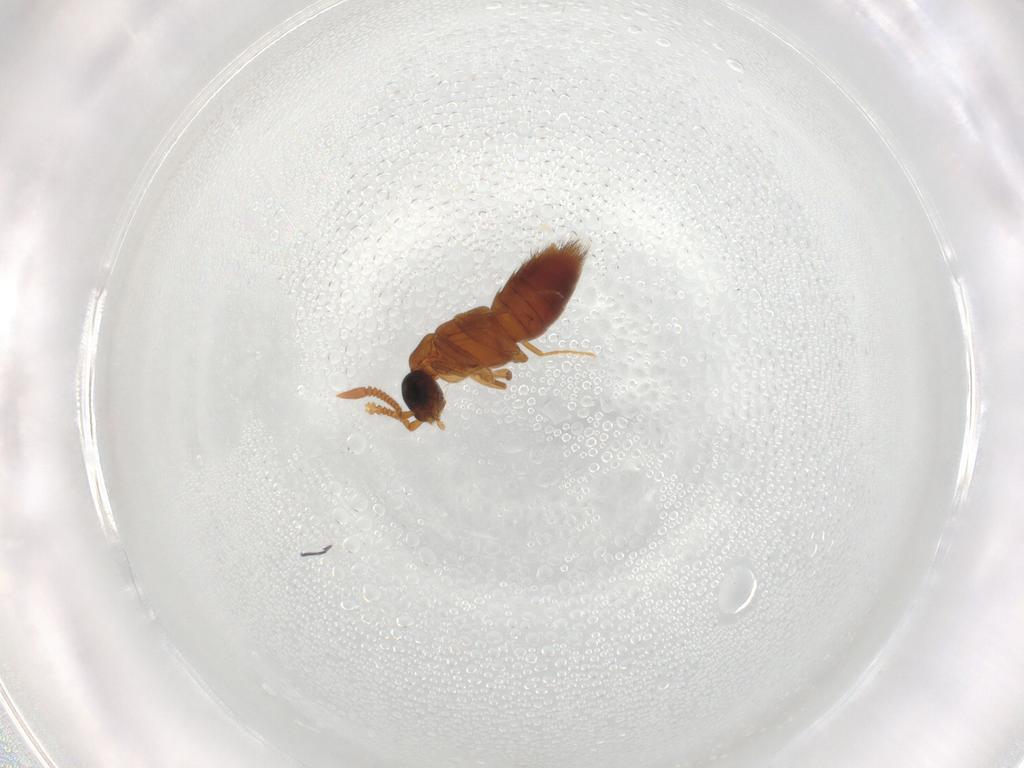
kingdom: Animalia
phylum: Arthropoda
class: Insecta
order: Coleoptera
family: Staphylinidae
